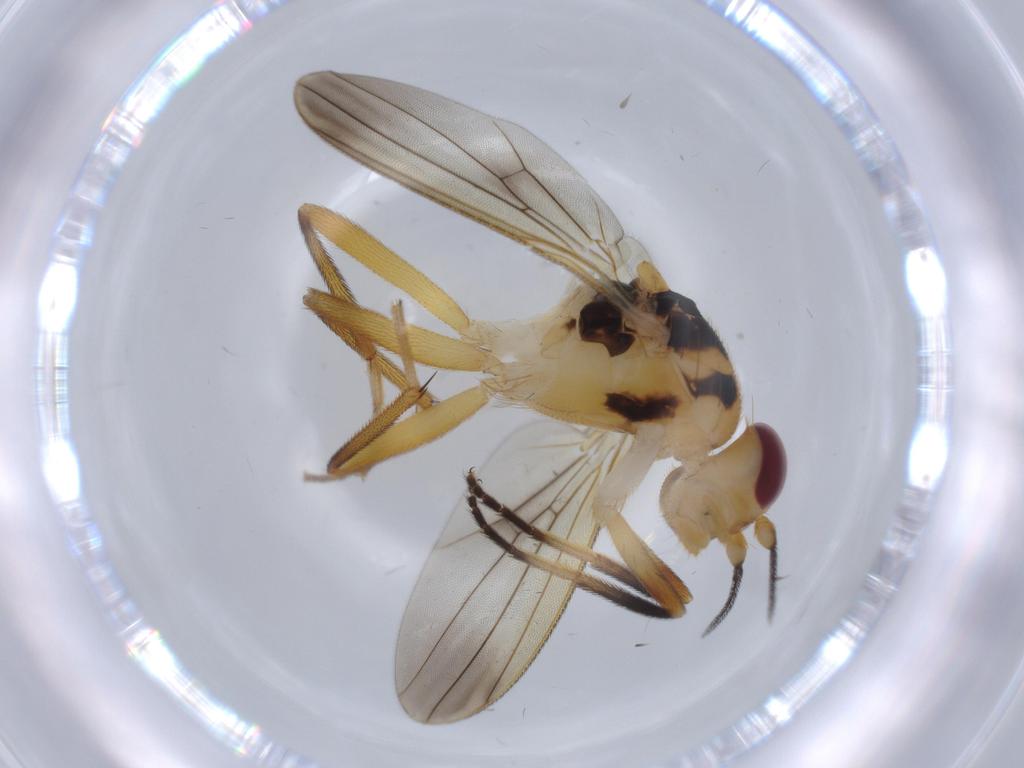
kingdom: Animalia
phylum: Arthropoda
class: Insecta
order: Diptera
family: Clusiidae
